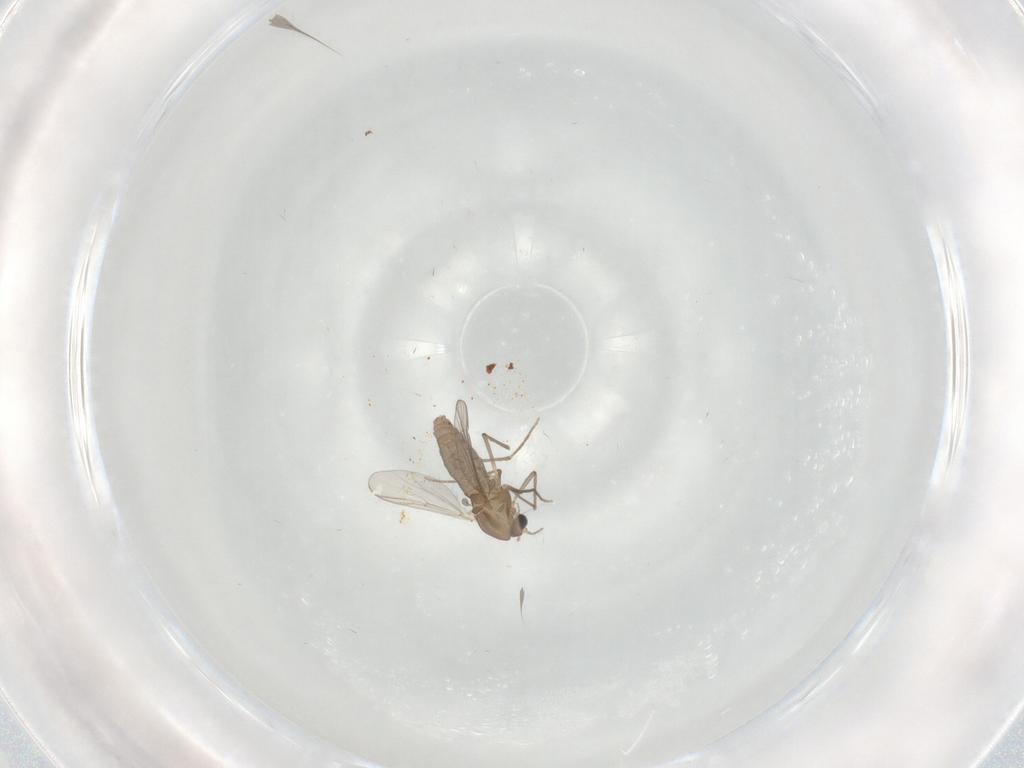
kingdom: Animalia
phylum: Arthropoda
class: Insecta
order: Diptera
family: Chironomidae
